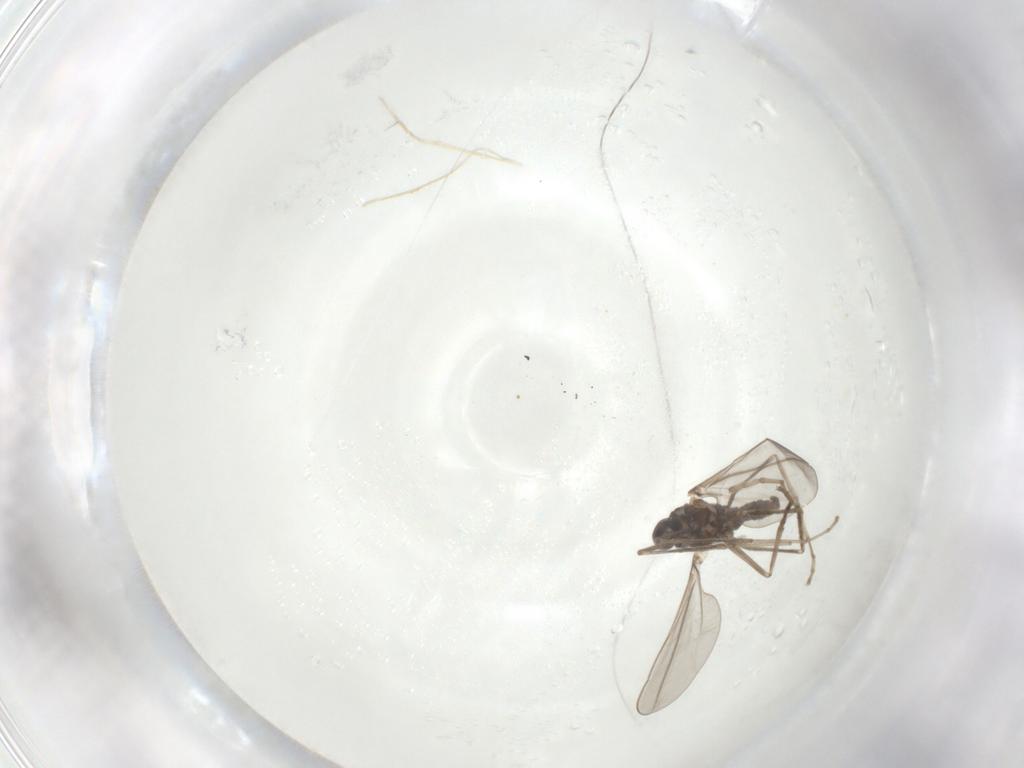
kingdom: Animalia
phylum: Arthropoda
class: Insecta
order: Diptera
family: Cecidomyiidae
